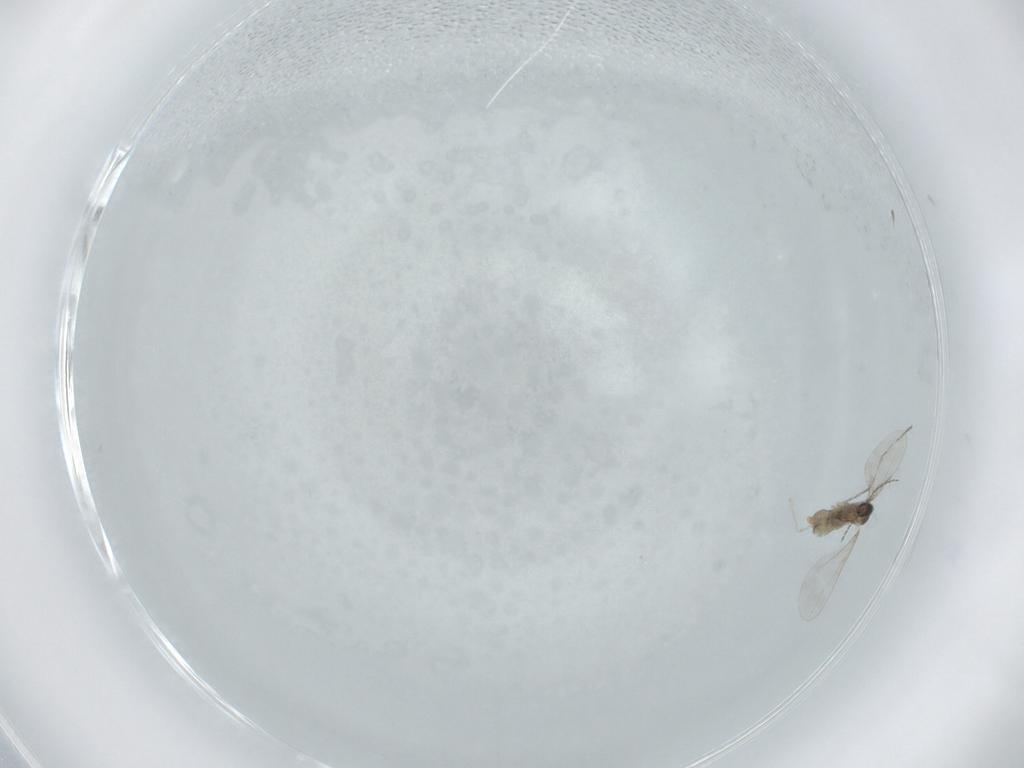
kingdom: Animalia
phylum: Arthropoda
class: Insecta
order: Diptera
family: Cecidomyiidae
